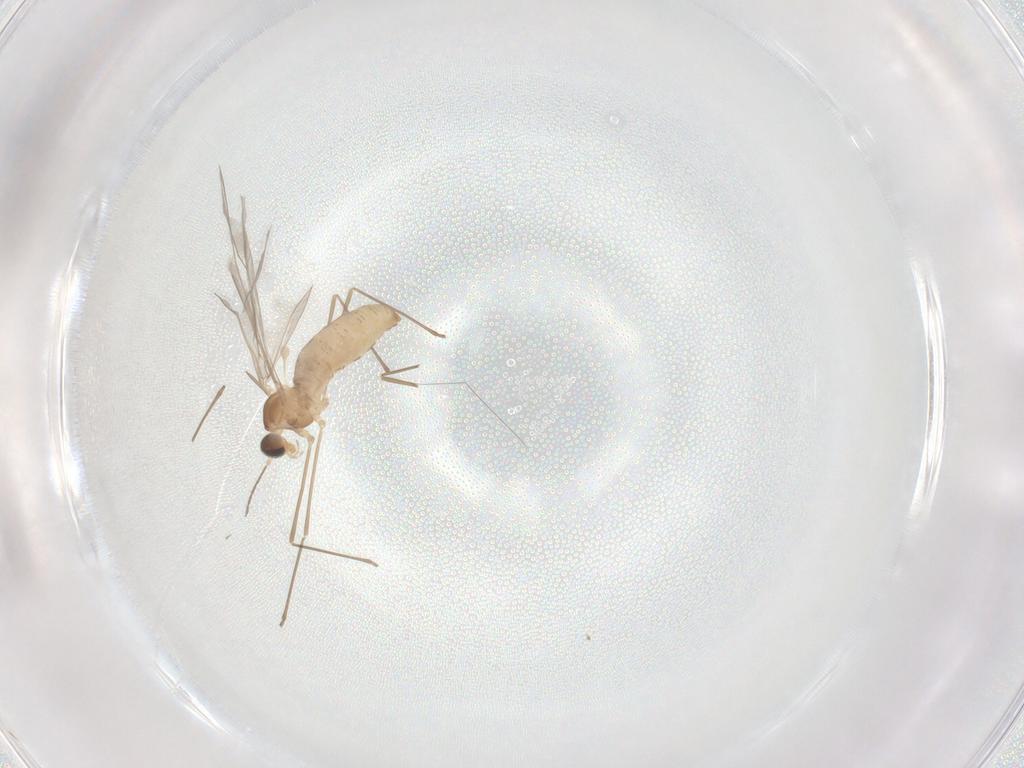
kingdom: Animalia
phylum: Arthropoda
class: Insecta
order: Diptera
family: Cecidomyiidae
